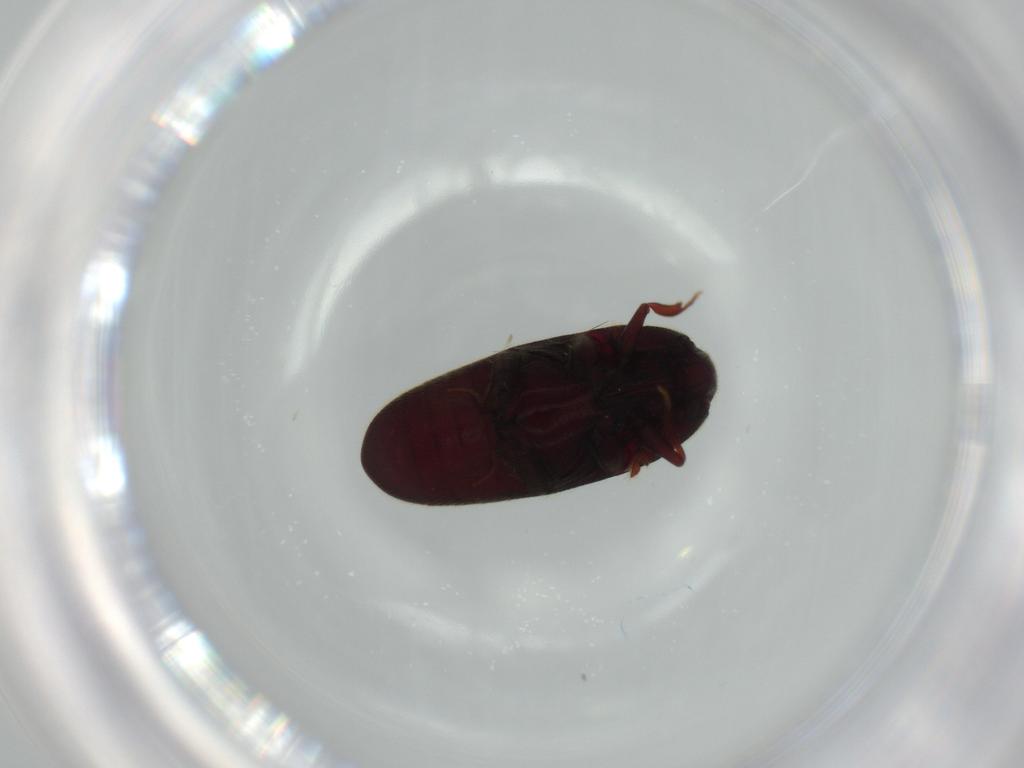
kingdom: Animalia
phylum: Arthropoda
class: Insecta
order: Coleoptera
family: Throscidae
